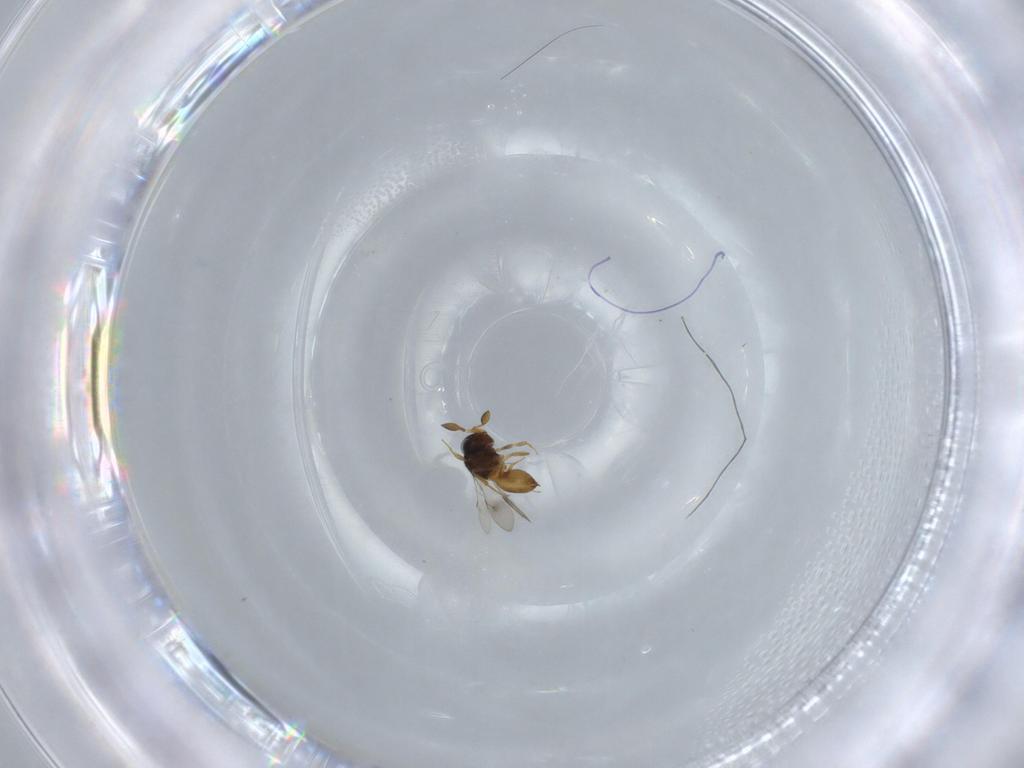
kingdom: Animalia
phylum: Arthropoda
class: Insecta
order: Hymenoptera
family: Scelionidae
